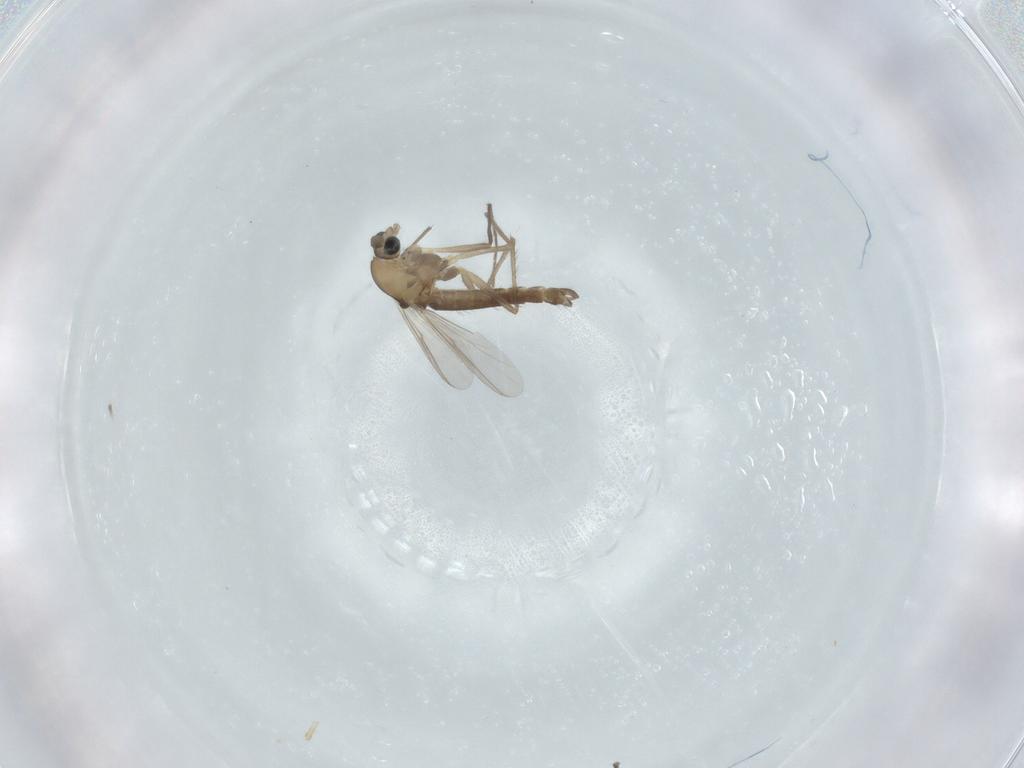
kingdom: Animalia
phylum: Arthropoda
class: Insecta
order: Diptera
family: Chironomidae
